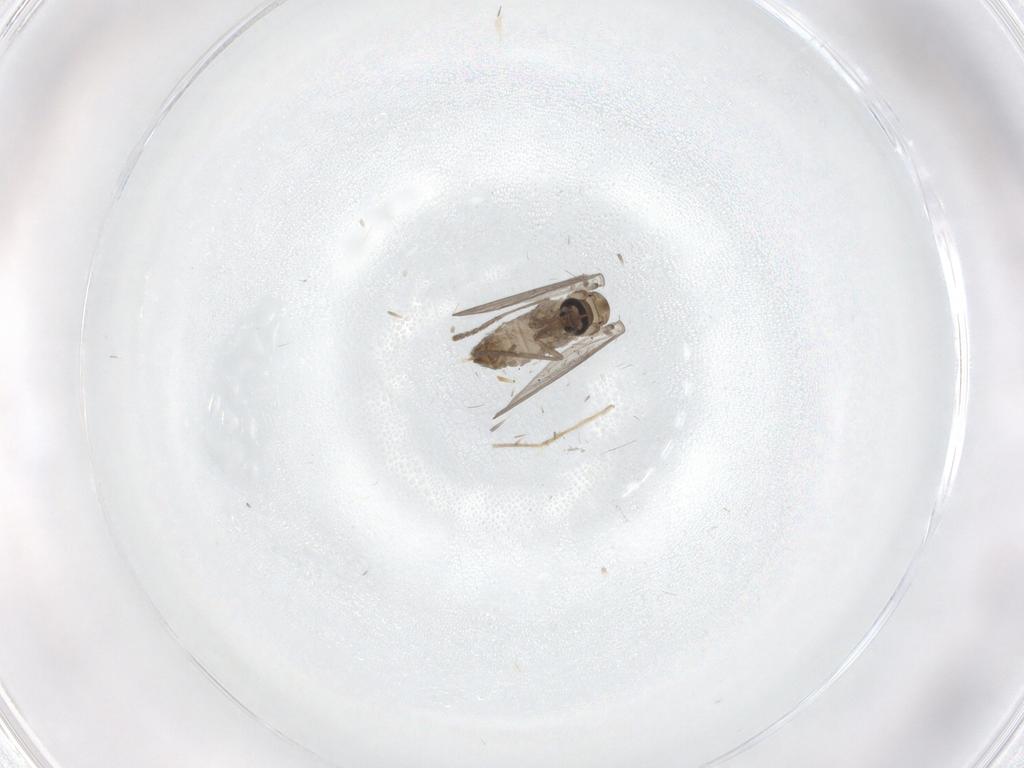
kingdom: Animalia
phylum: Arthropoda
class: Insecta
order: Diptera
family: Psychodidae
